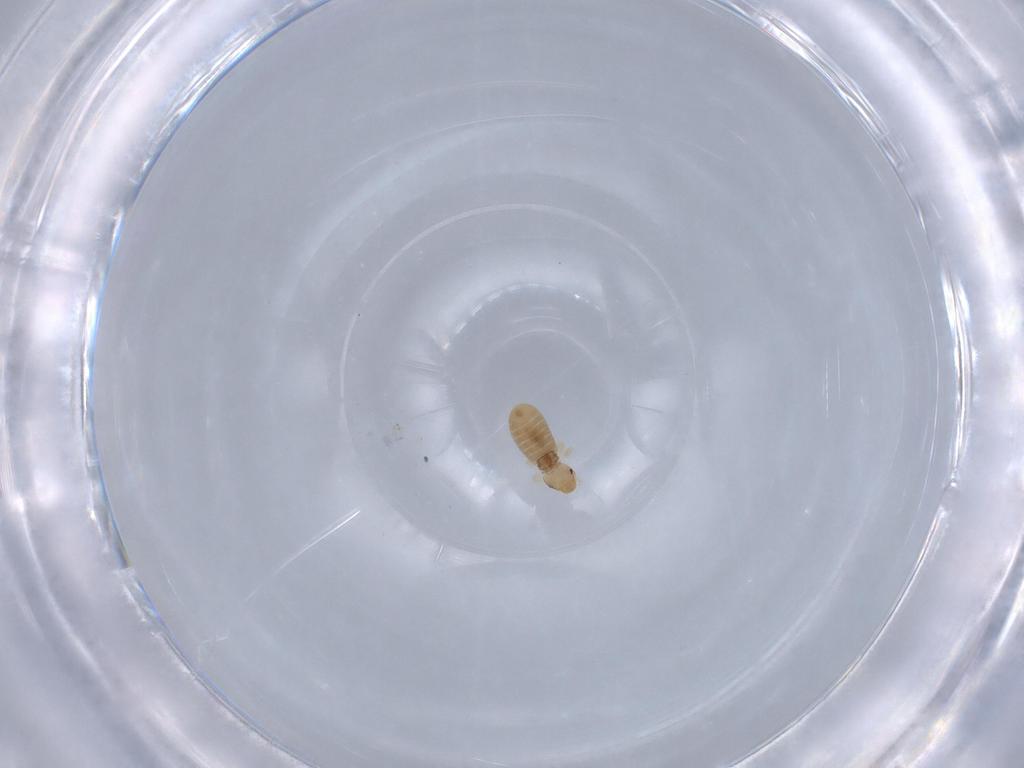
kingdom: Animalia
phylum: Arthropoda
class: Insecta
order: Psocodea
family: Liposcelididae
